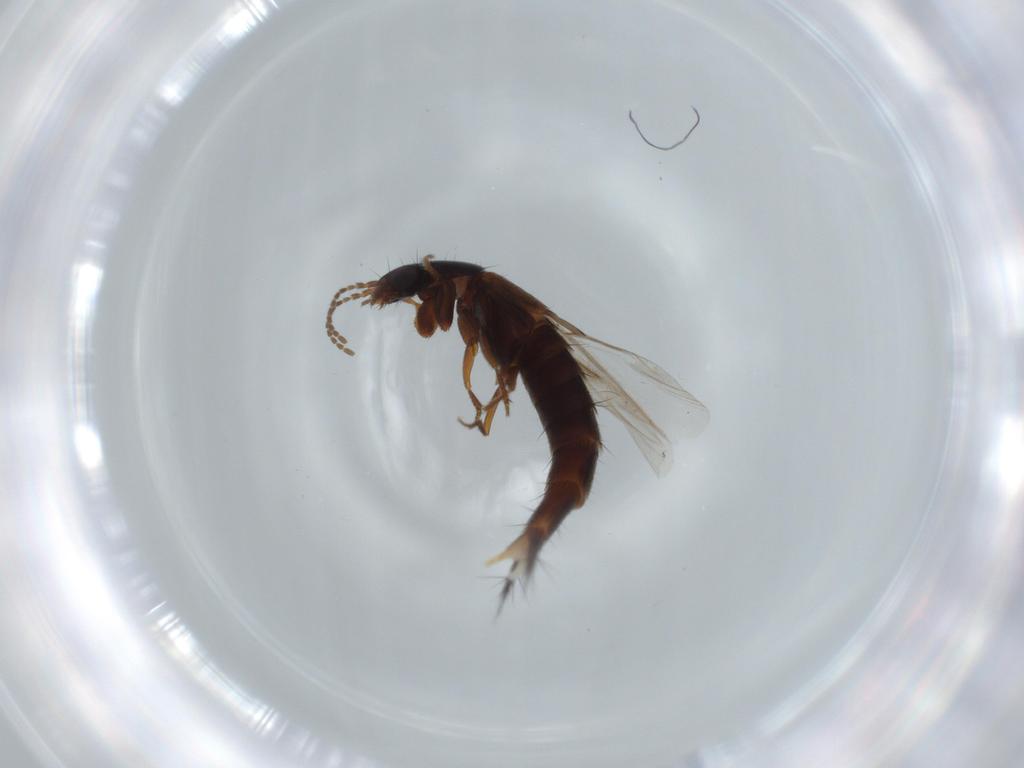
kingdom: Animalia
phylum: Arthropoda
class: Insecta
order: Coleoptera
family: Staphylinidae
